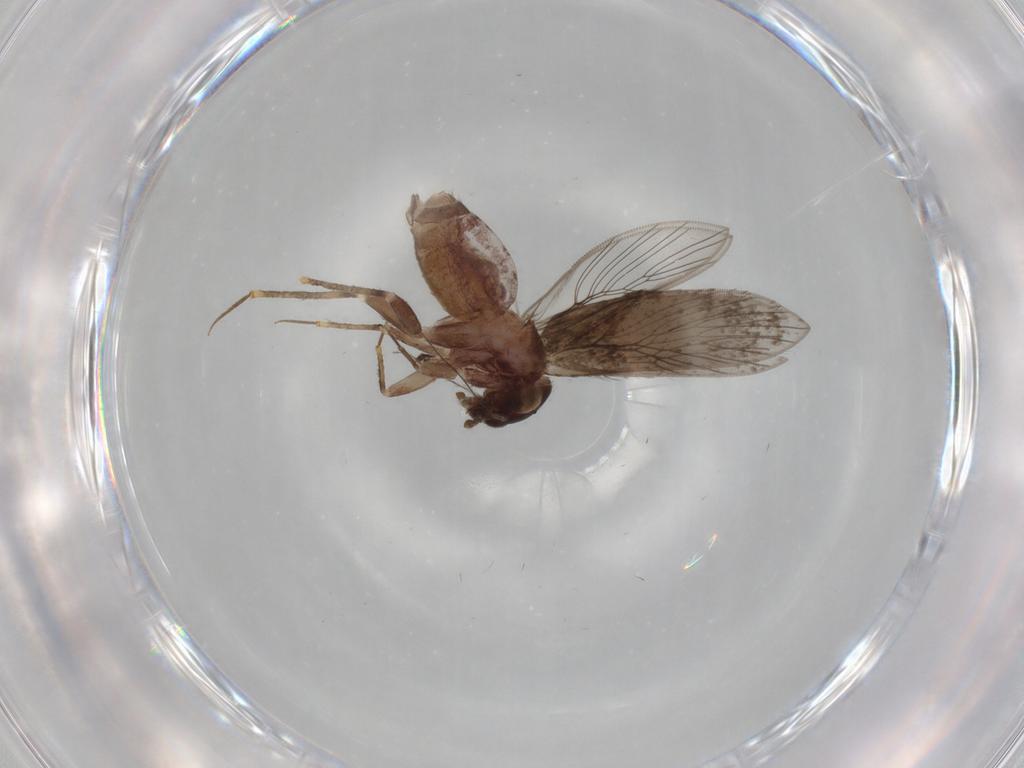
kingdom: Animalia
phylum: Arthropoda
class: Insecta
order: Psocodea
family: Lepidopsocidae
